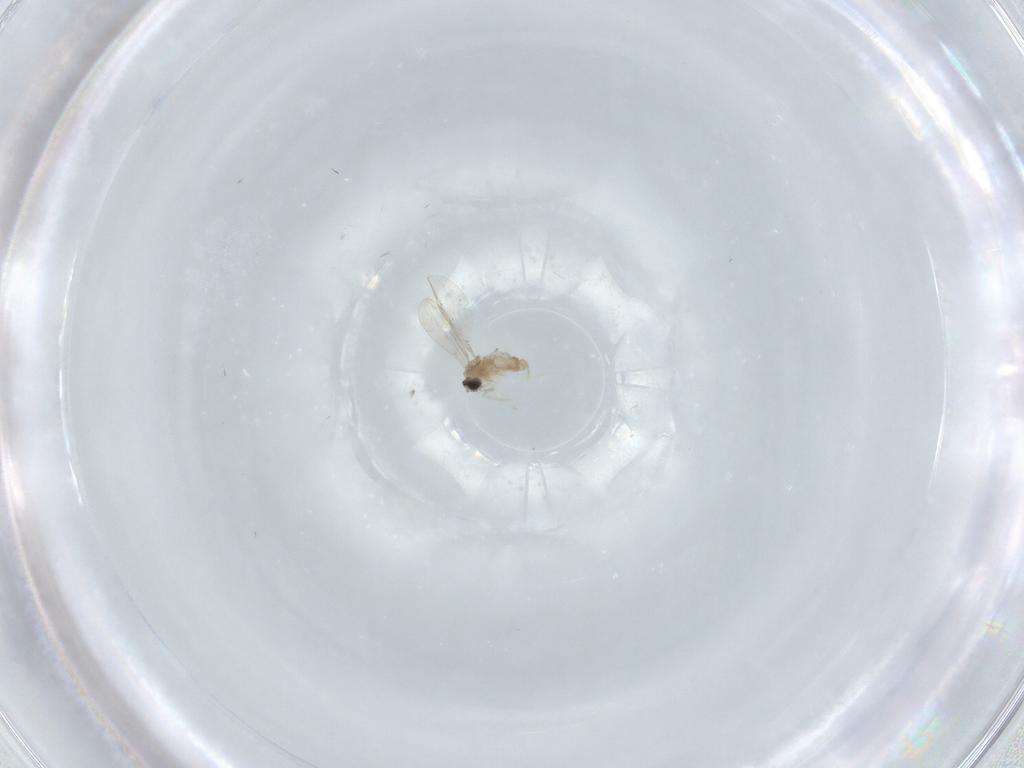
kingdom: Animalia
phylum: Arthropoda
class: Insecta
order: Diptera
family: Cecidomyiidae
